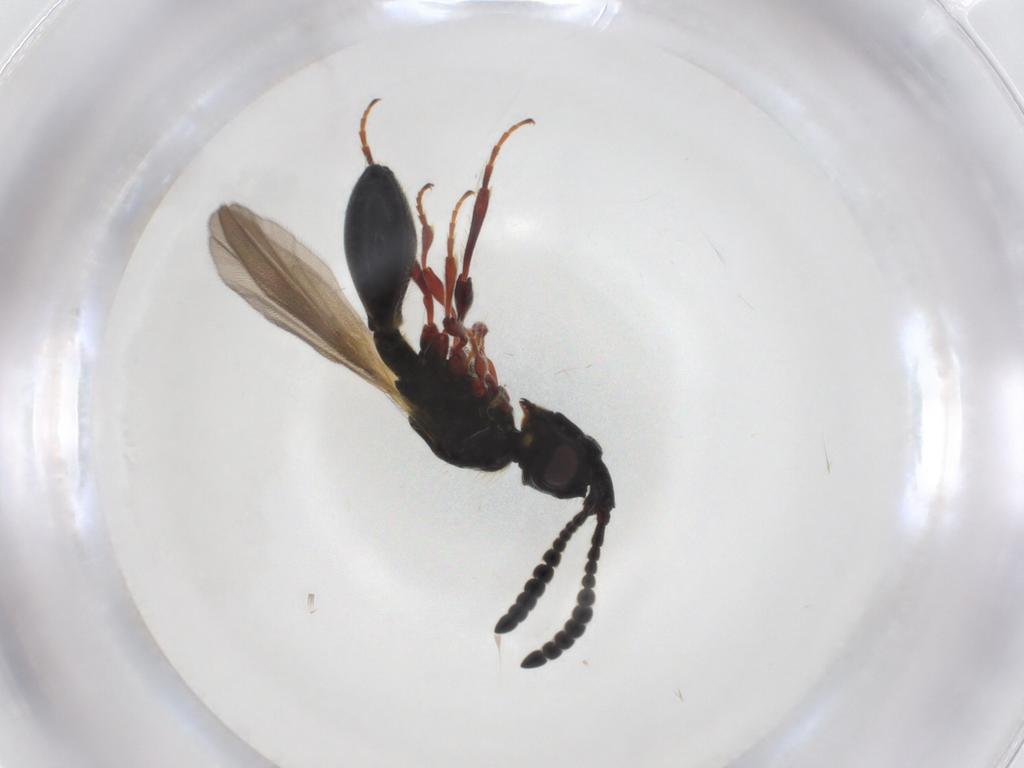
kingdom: Animalia
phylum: Arthropoda
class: Insecta
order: Hymenoptera
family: Diapriidae
